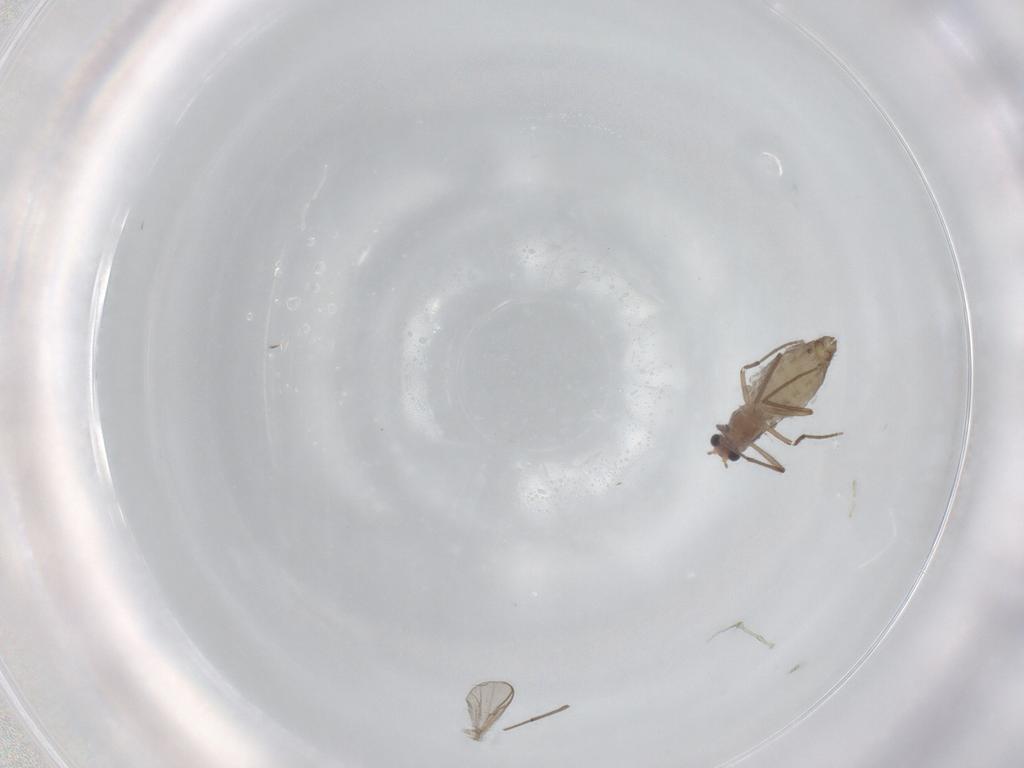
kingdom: Animalia
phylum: Arthropoda
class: Insecta
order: Diptera
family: Chironomidae
